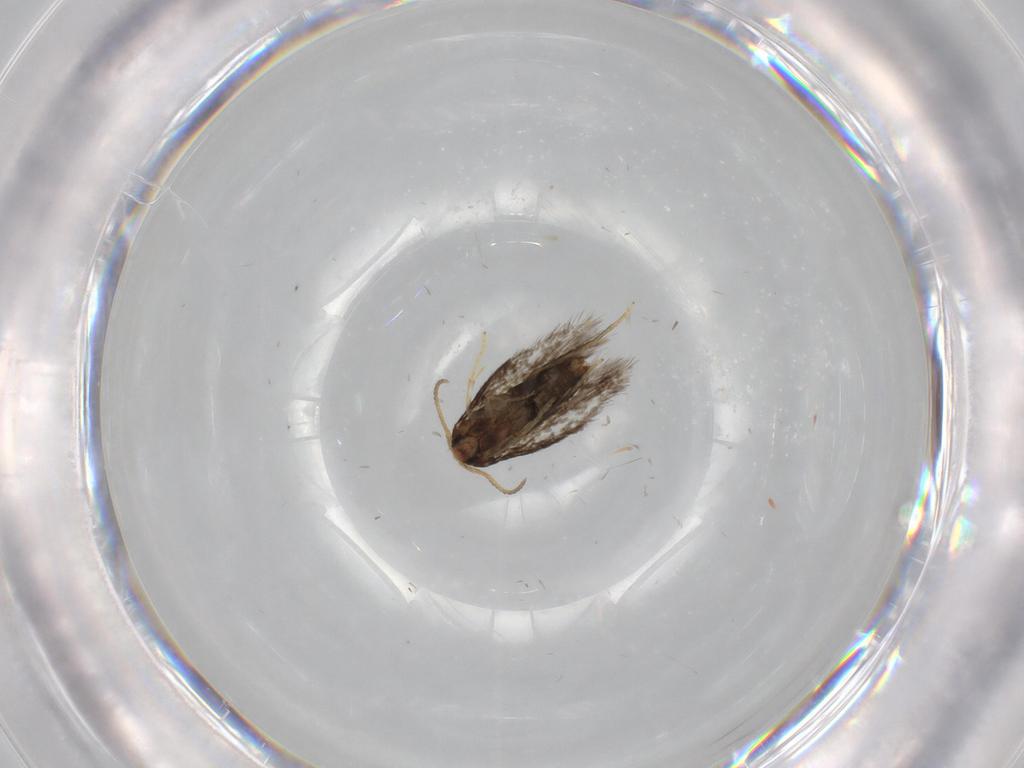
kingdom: Animalia
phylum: Arthropoda
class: Insecta
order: Lepidoptera
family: Nepticulidae
